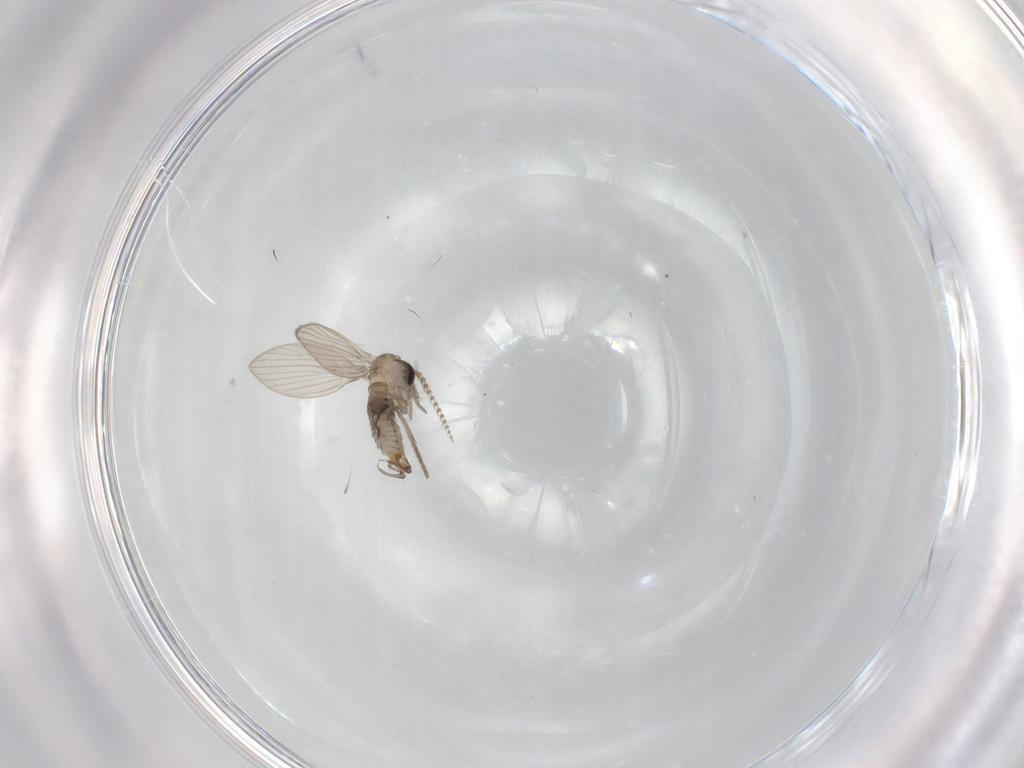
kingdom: Animalia
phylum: Arthropoda
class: Insecta
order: Diptera
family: Psychodidae
